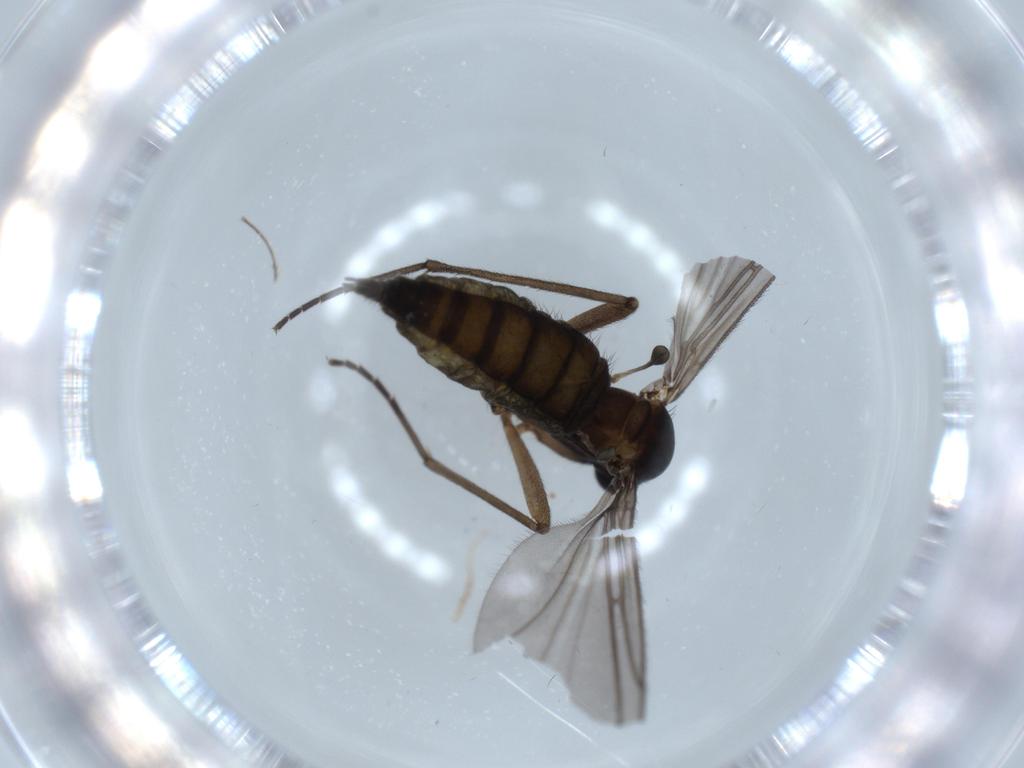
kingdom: Animalia
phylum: Arthropoda
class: Insecta
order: Diptera
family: Sciaridae
